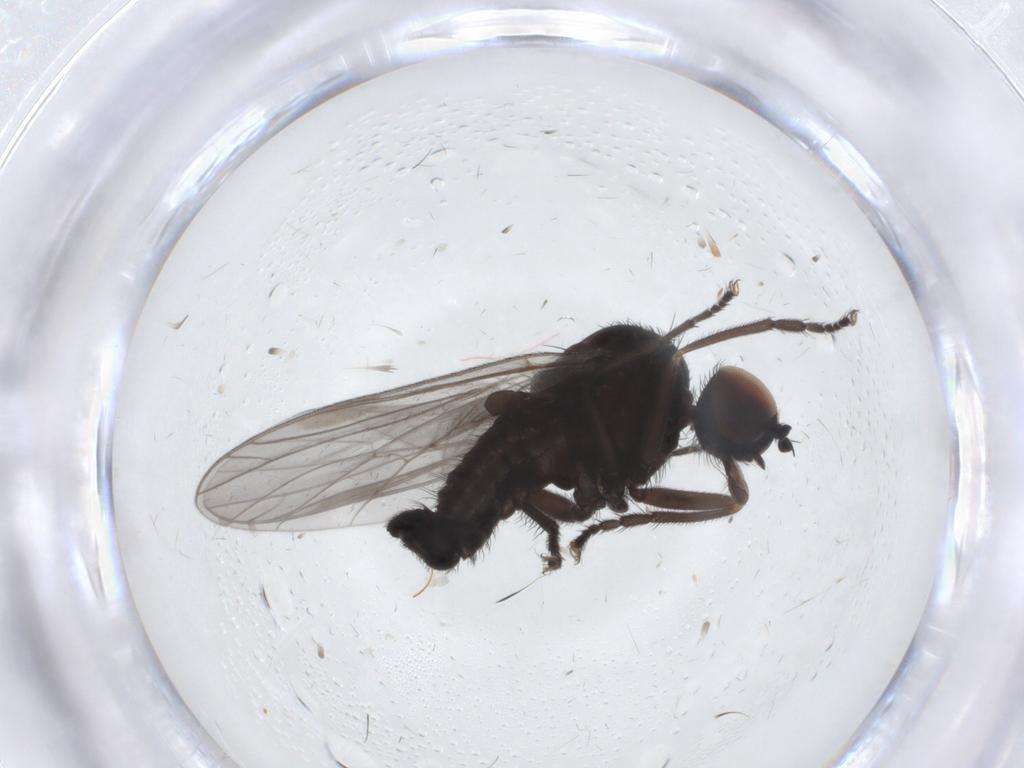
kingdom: Animalia
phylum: Arthropoda
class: Insecta
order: Diptera
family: Empididae
